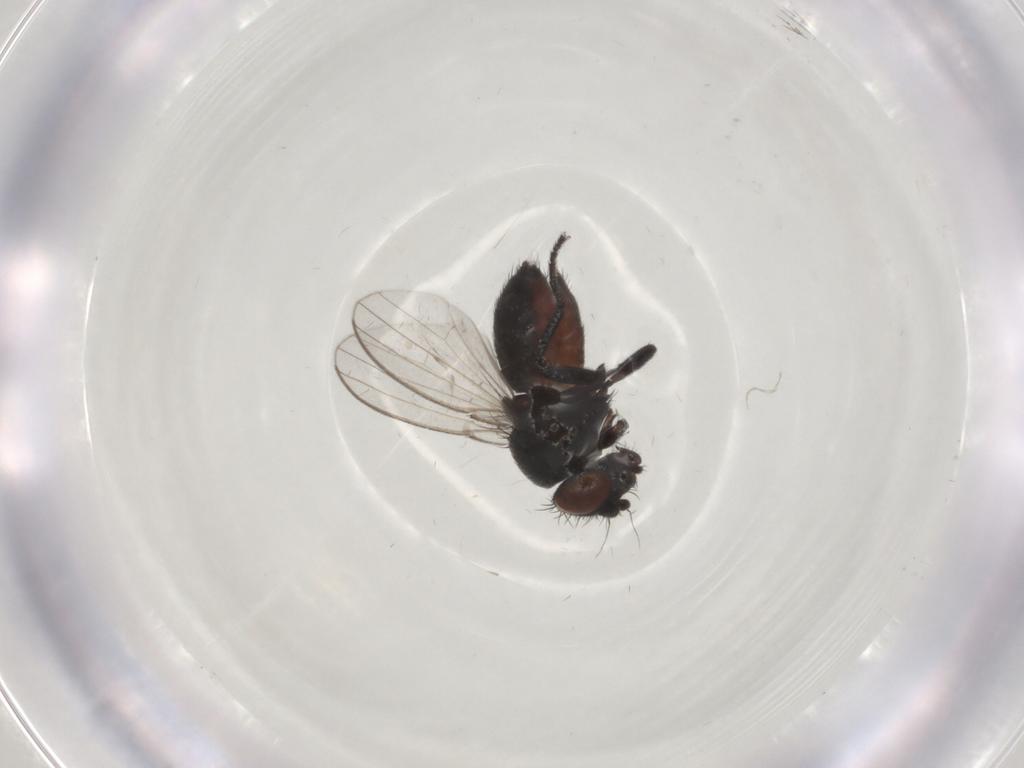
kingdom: Animalia
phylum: Arthropoda
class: Insecta
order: Diptera
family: Milichiidae
